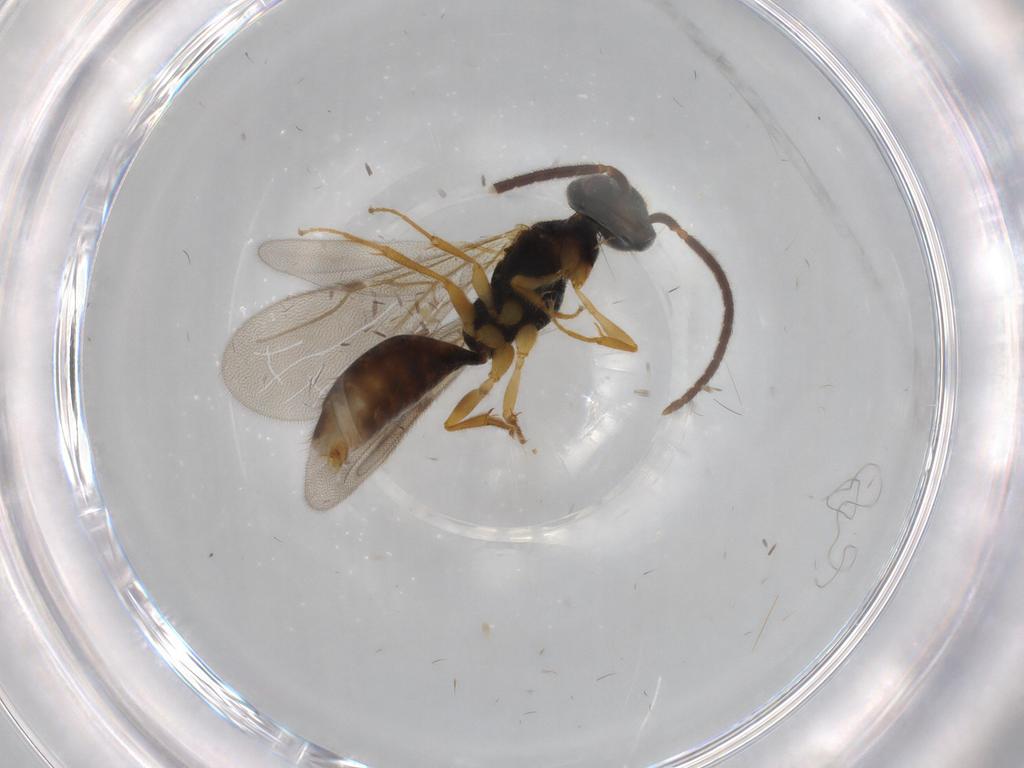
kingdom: Animalia
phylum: Arthropoda
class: Insecta
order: Hymenoptera
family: Bethylidae
